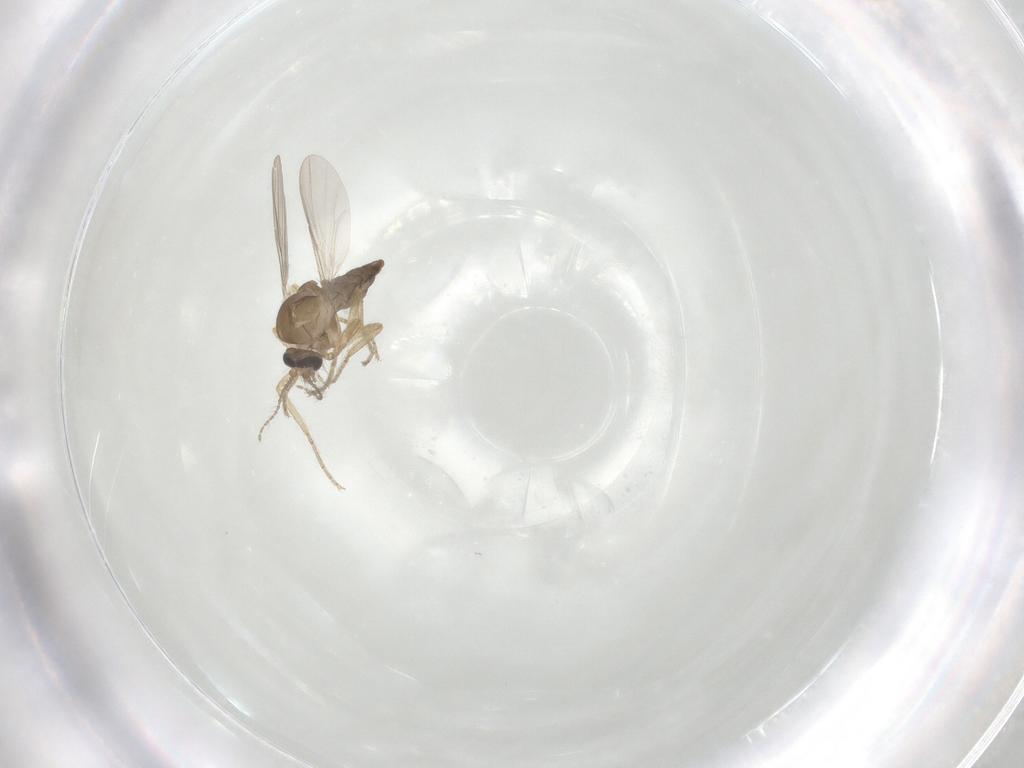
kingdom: Animalia
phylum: Arthropoda
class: Insecta
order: Diptera
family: Ceratopogonidae
